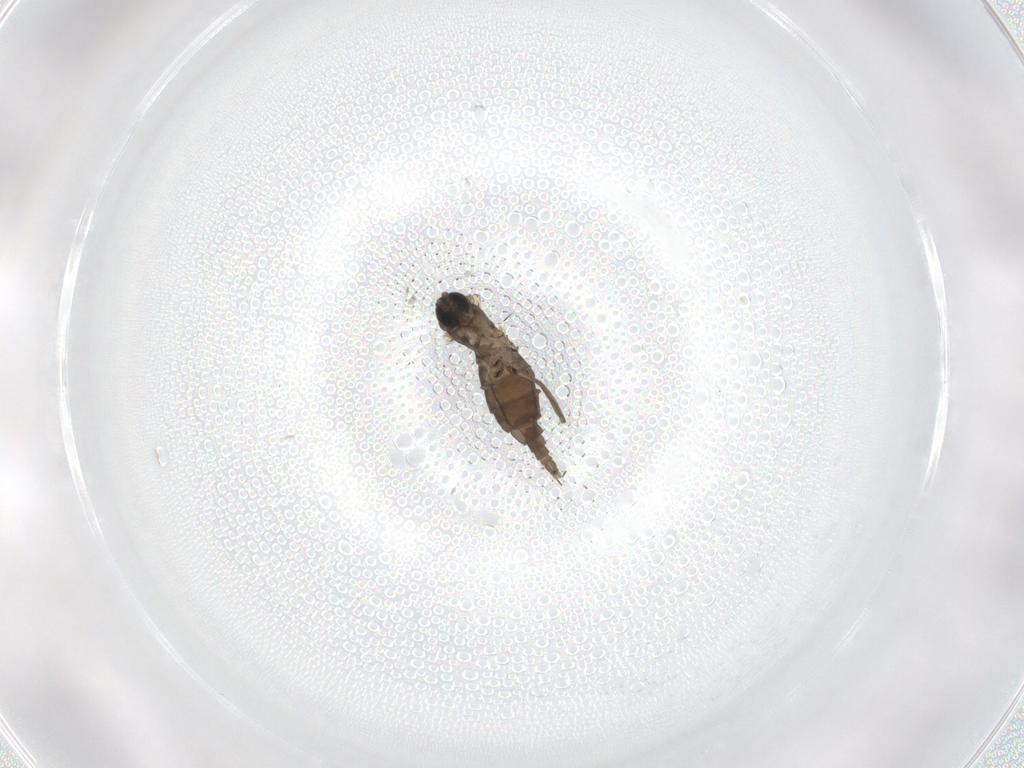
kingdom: Animalia
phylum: Arthropoda
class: Insecta
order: Diptera
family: Sciaridae
